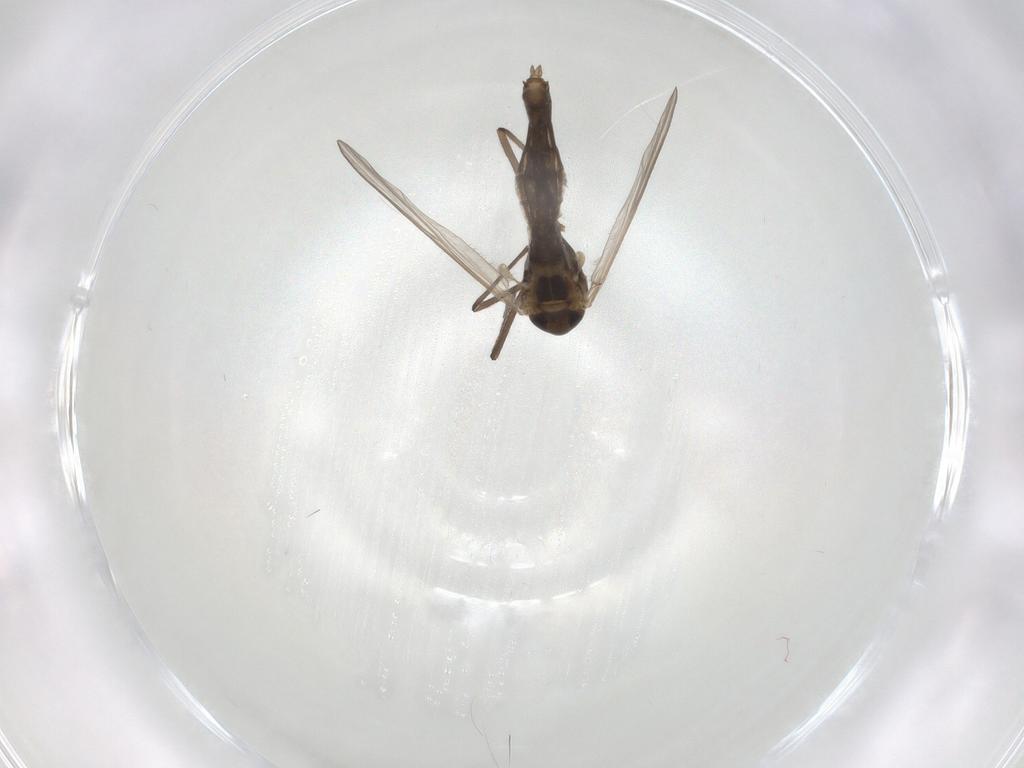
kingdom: Animalia
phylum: Arthropoda
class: Insecta
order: Diptera
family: Chironomidae
